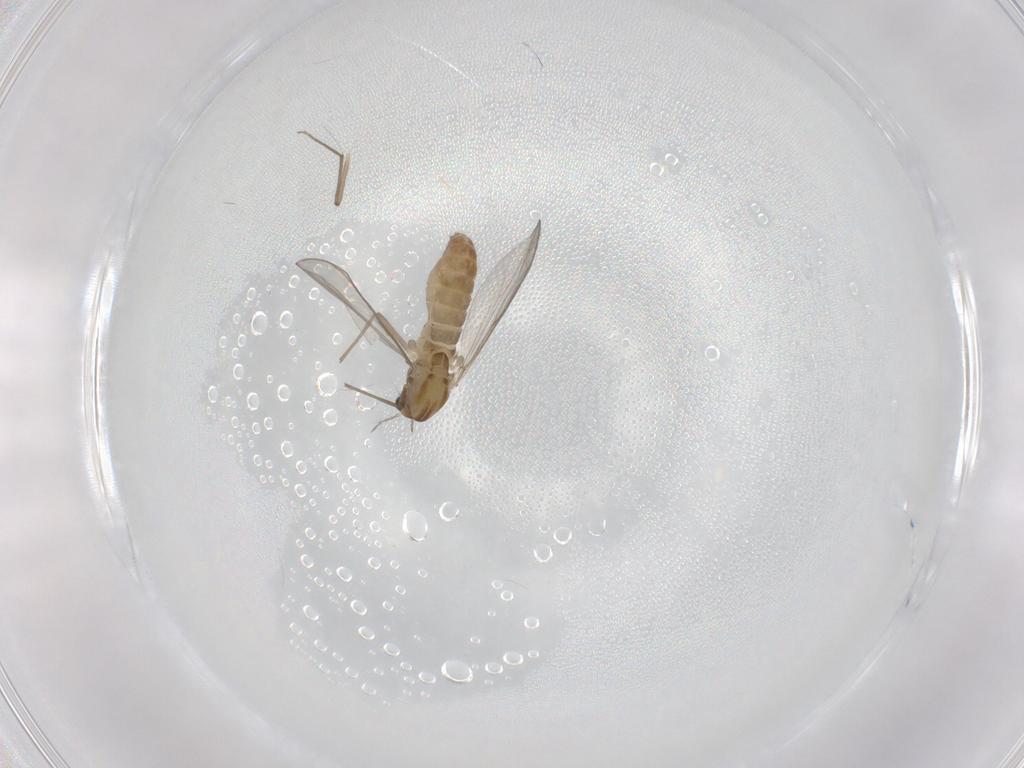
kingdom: Animalia
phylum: Arthropoda
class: Insecta
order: Diptera
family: Chironomidae
